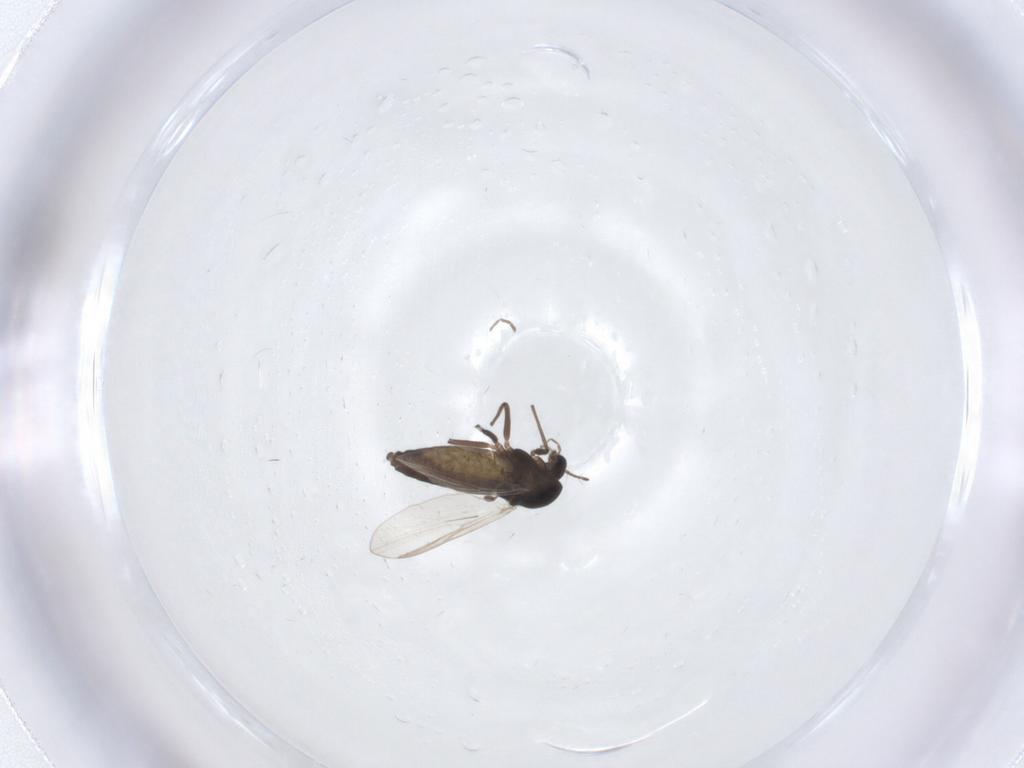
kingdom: Animalia
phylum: Arthropoda
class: Insecta
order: Diptera
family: Chironomidae
